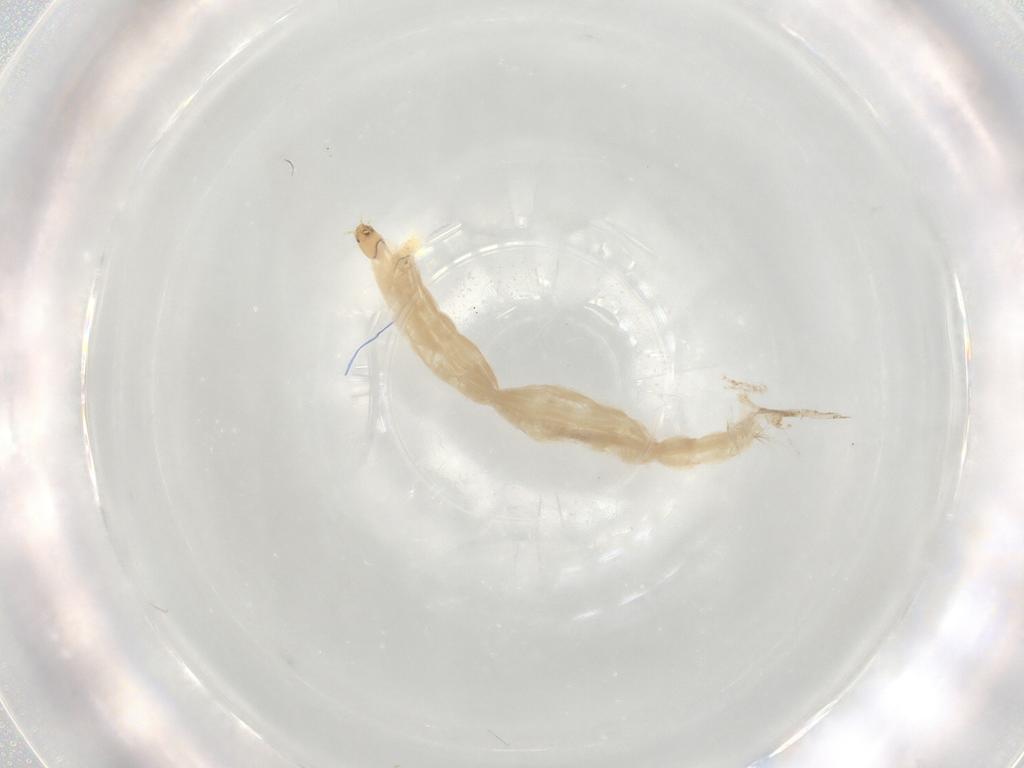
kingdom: Animalia
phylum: Arthropoda
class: Insecta
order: Diptera
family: Chironomidae
